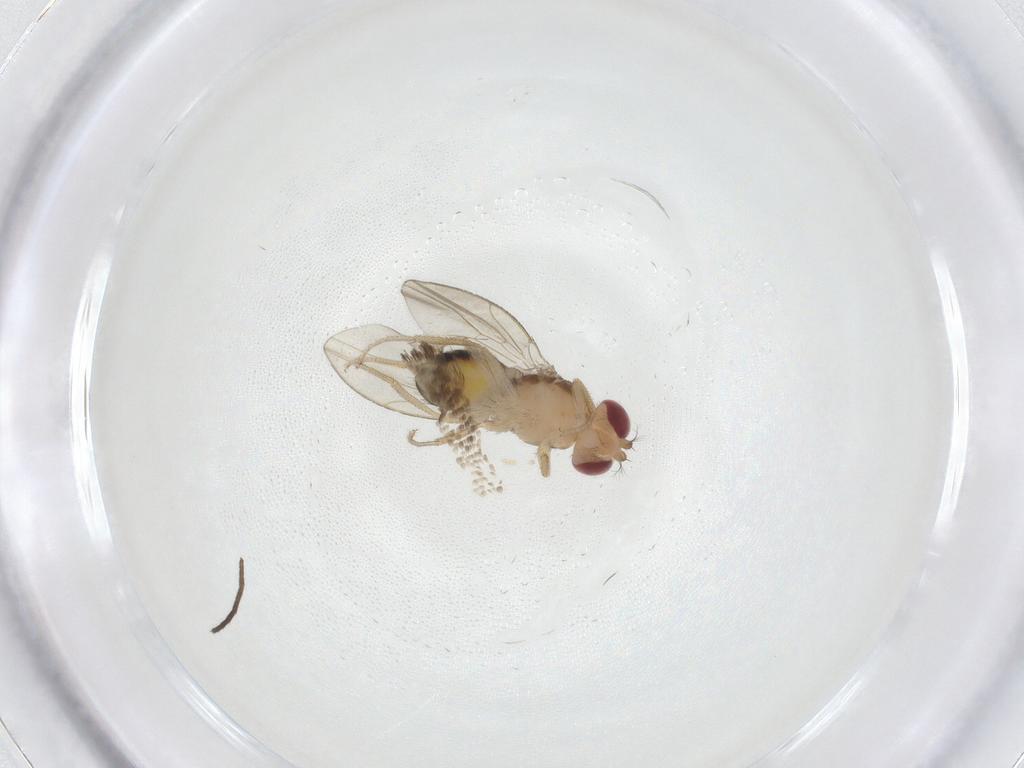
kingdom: Animalia
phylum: Arthropoda
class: Insecta
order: Diptera
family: Drosophilidae
